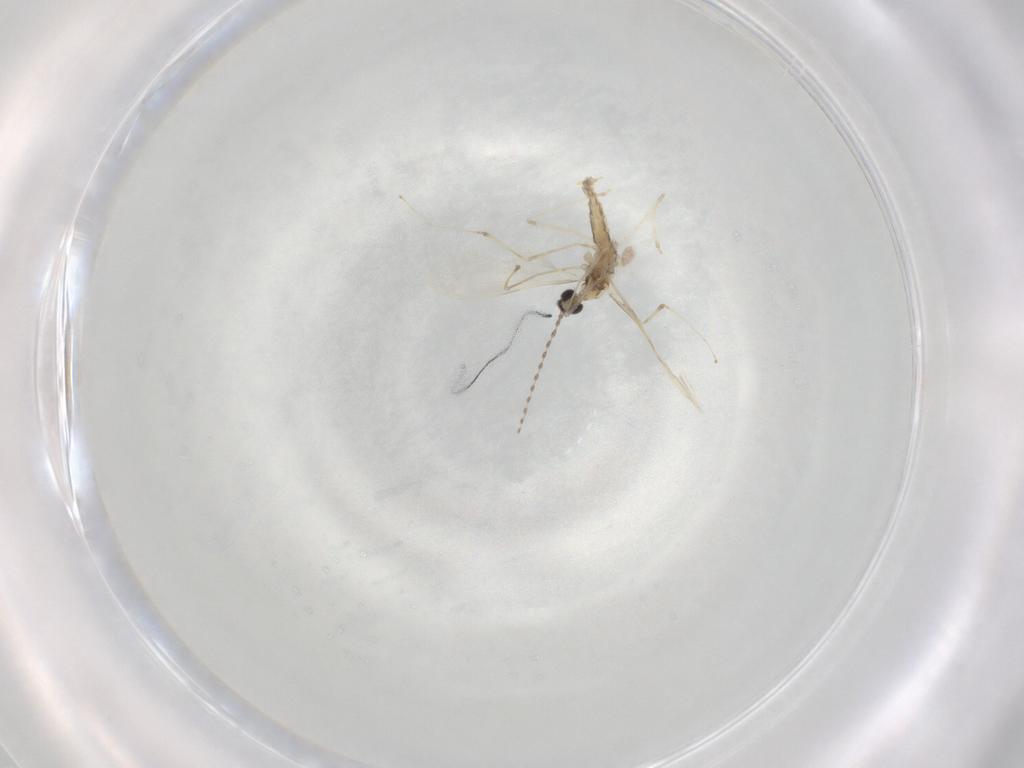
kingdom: Animalia
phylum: Arthropoda
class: Insecta
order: Diptera
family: Cecidomyiidae
